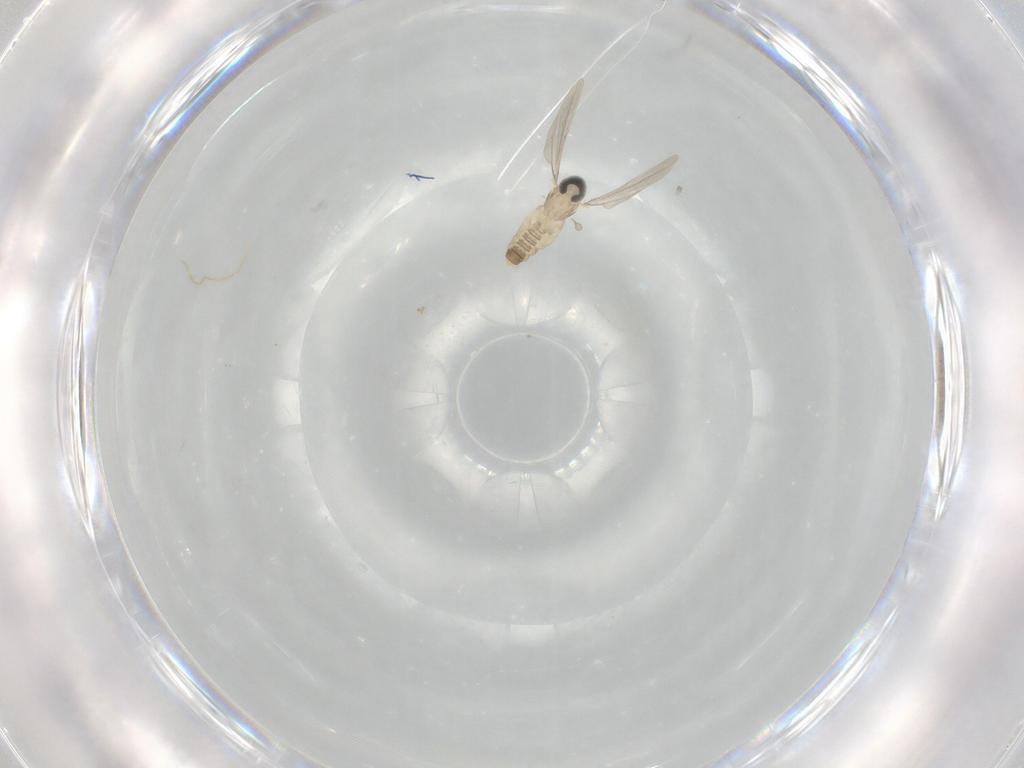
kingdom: Animalia
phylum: Arthropoda
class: Insecta
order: Diptera
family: Cecidomyiidae
